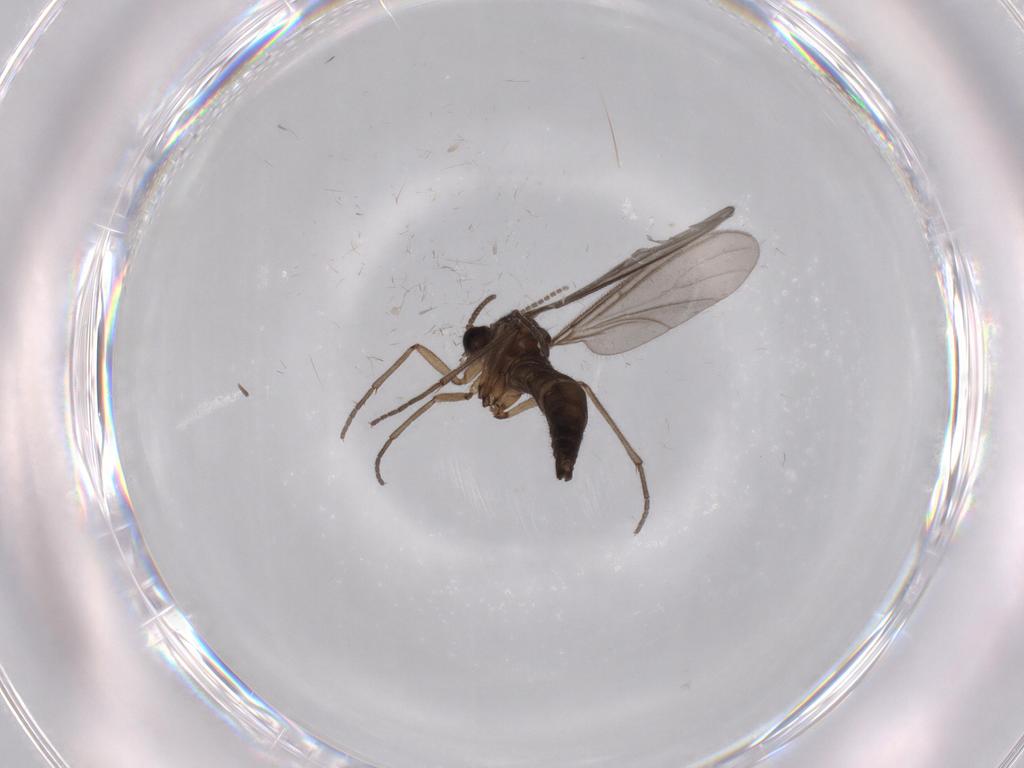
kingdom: Animalia
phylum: Arthropoda
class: Insecta
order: Diptera
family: Sciaridae
